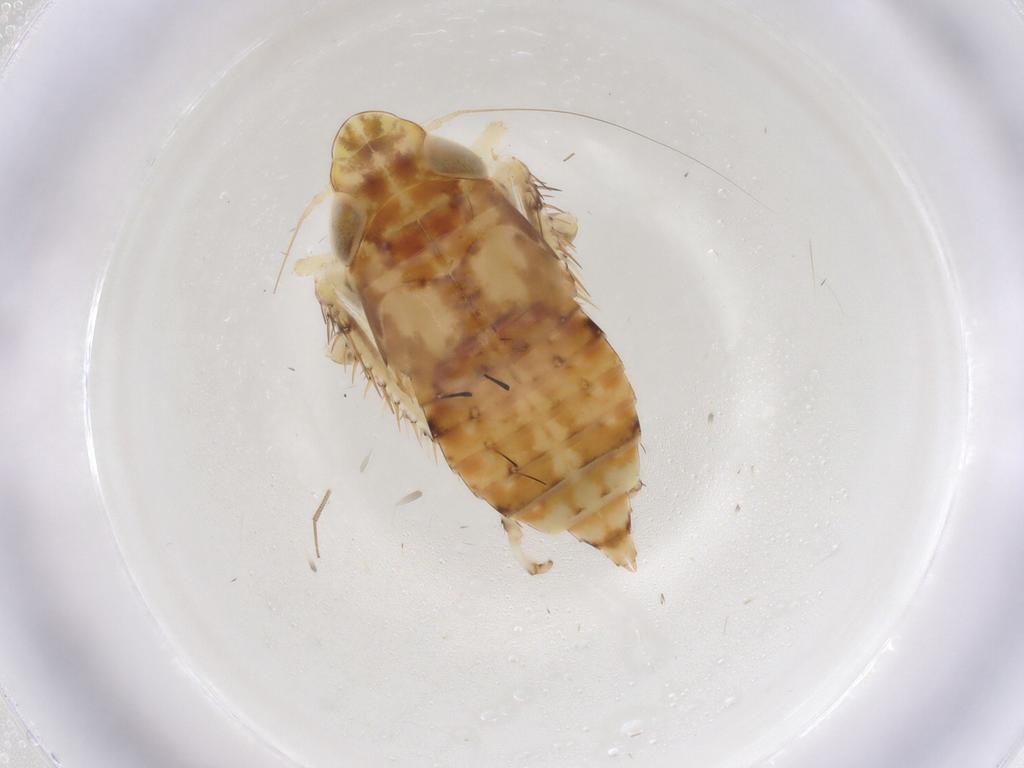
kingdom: Animalia
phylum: Arthropoda
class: Insecta
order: Hemiptera
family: Cicadellidae
